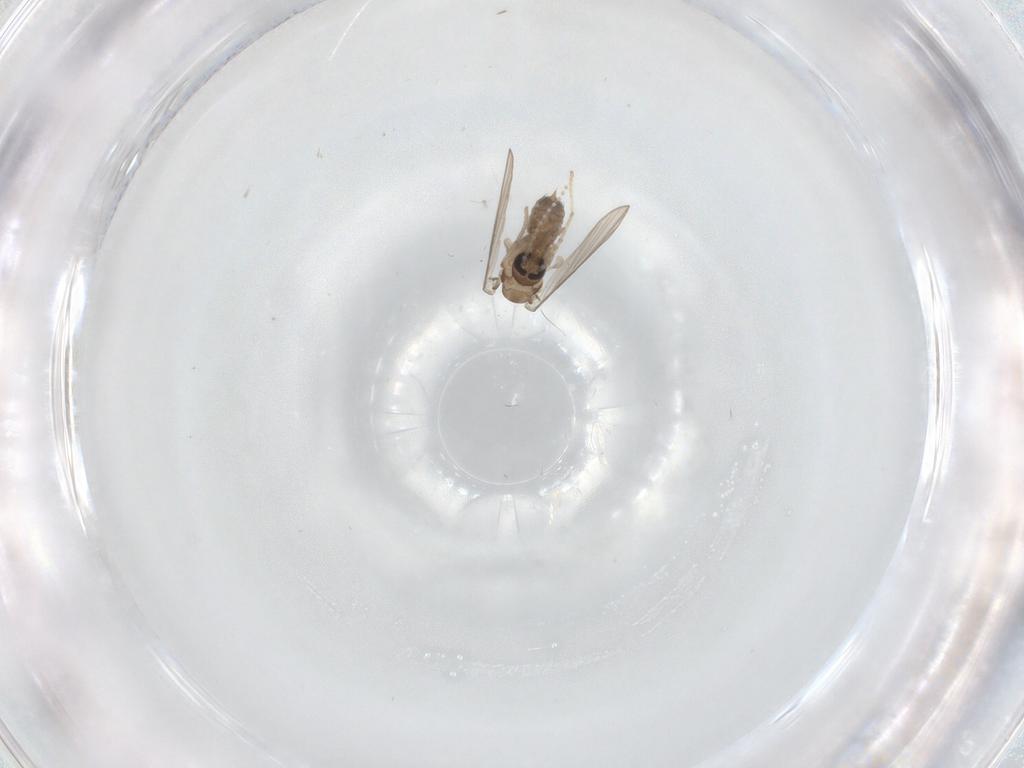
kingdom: Animalia
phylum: Arthropoda
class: Insecta
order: Diptera
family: Psychodidae
